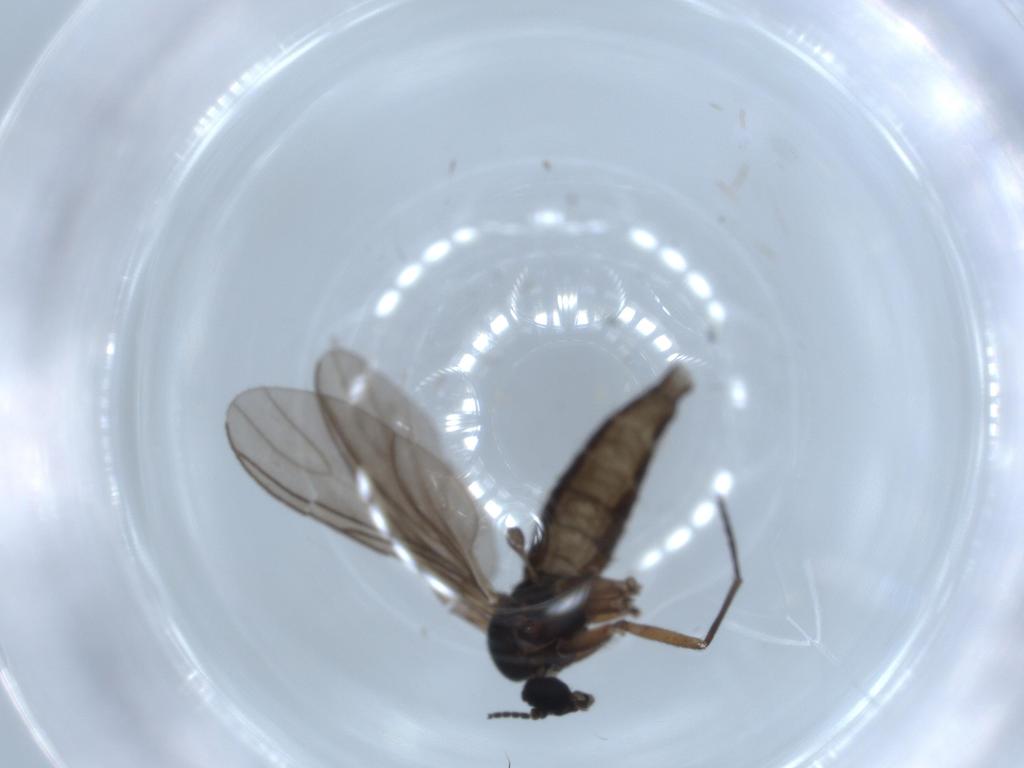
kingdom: Animalia
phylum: Arthropoda
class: Insecta
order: Diptera
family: Sciaridae
